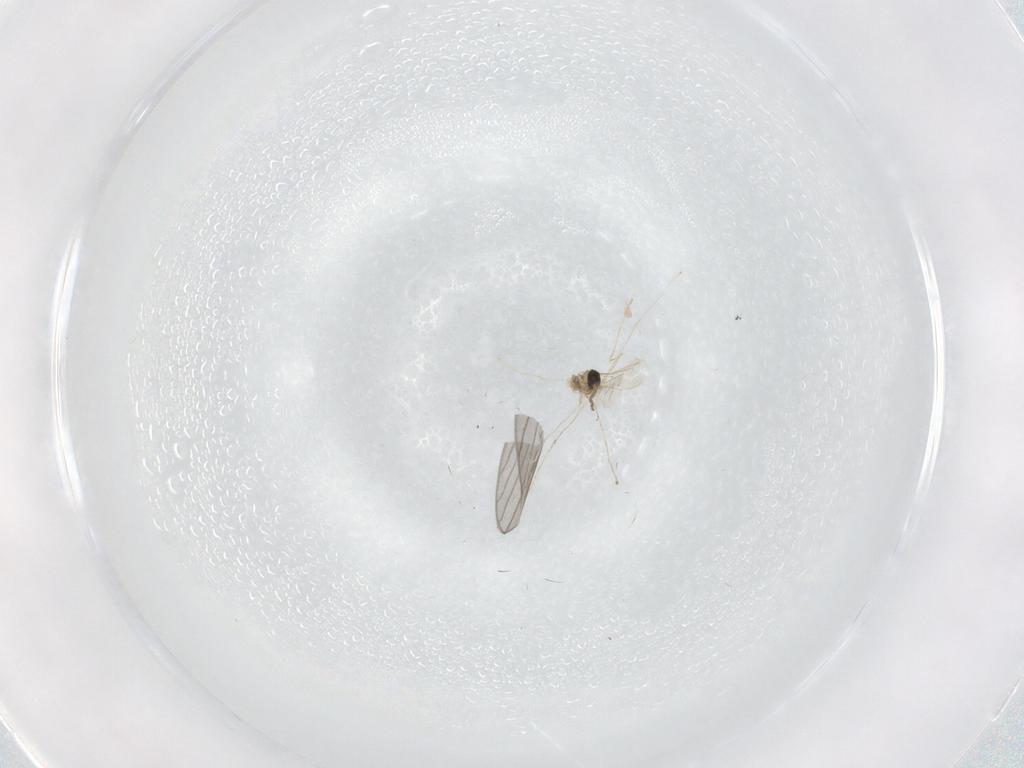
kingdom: Animalia
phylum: Arthropoda
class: Insecta
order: Diptera
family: Psychodidae
